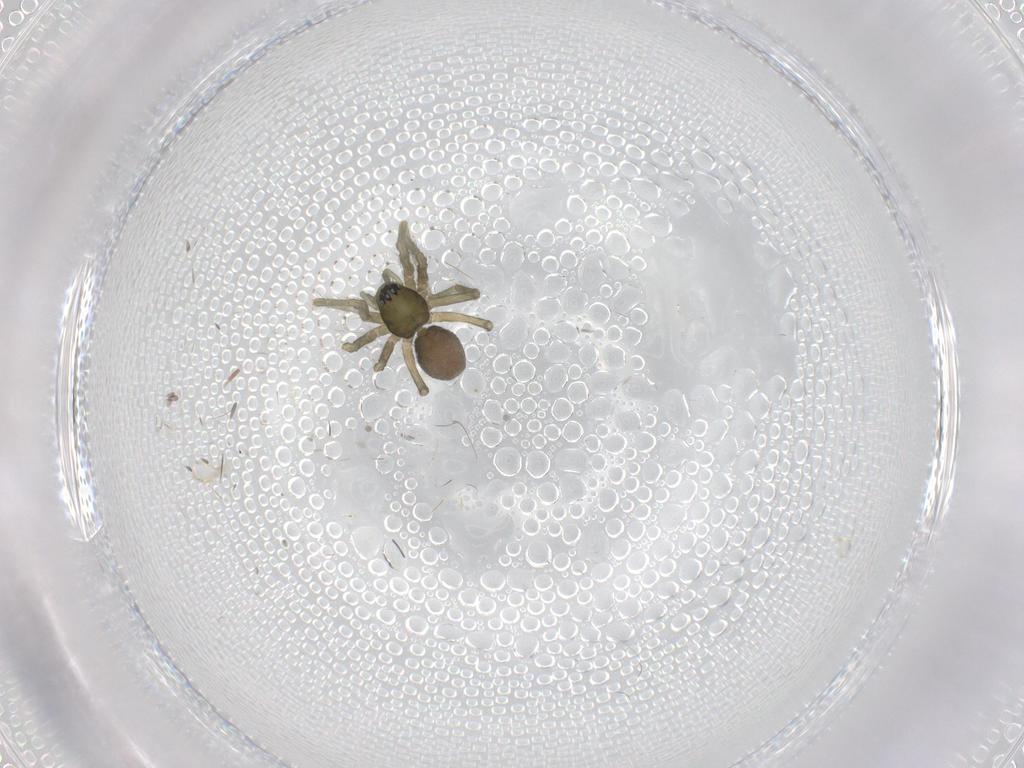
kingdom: Animalia
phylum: Arthropoda
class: Arachnida
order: Araneae
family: Linyphiidae
